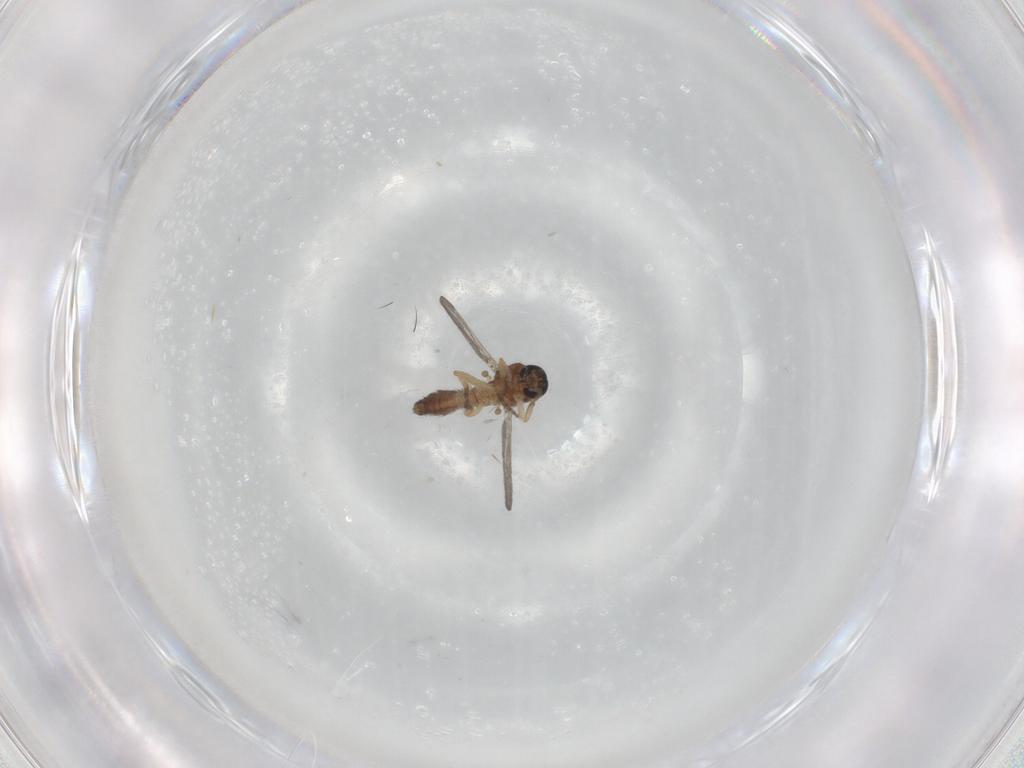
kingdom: Animalia
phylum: Arthropoda
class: Insecta
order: Diptera
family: Ceratopogonidae
